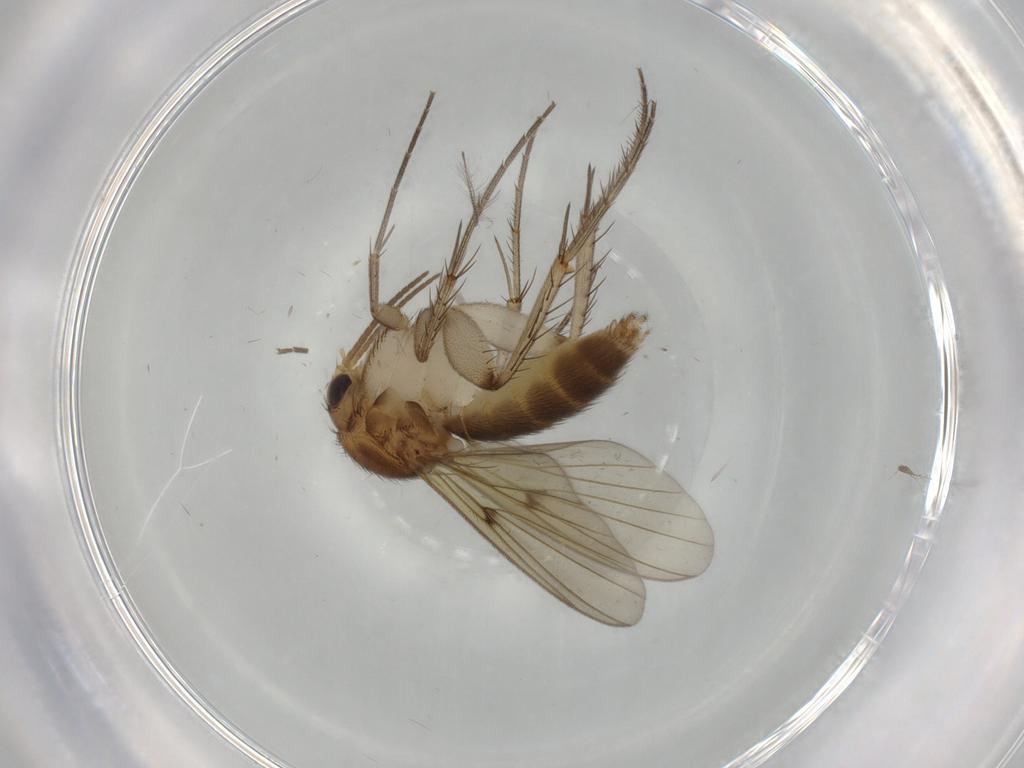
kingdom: Animalia
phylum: Arthropoda
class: Insecta
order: Diptera
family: Mycetophilidae
